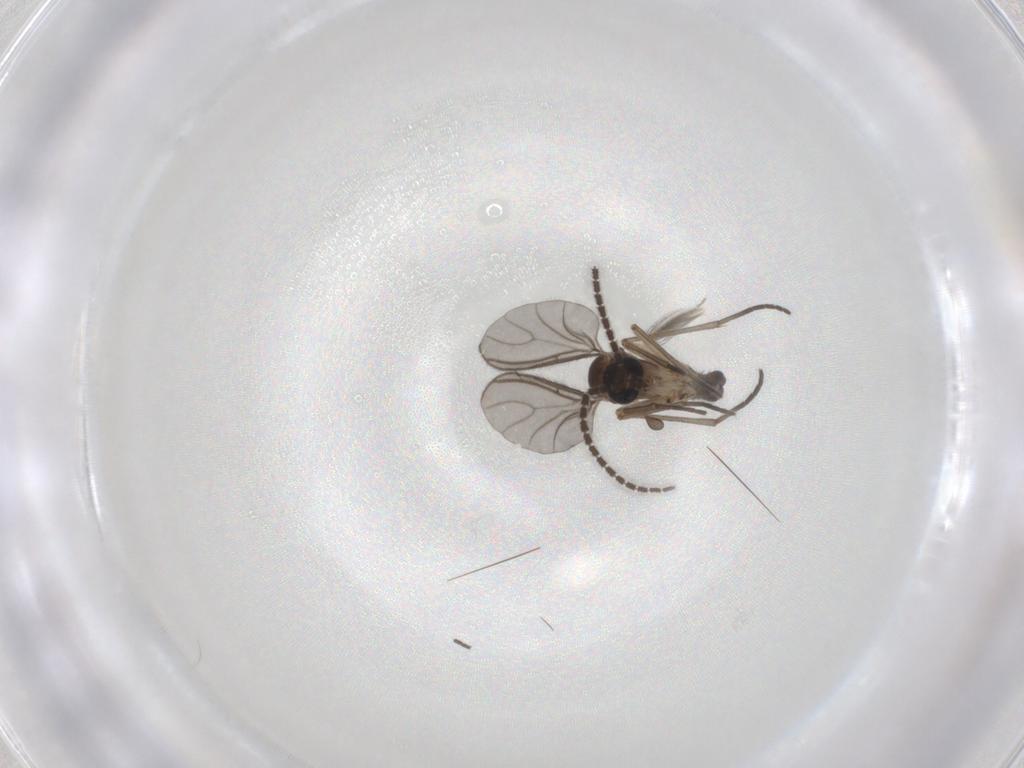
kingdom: Animalia
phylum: Arthropoda
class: Insecta
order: Diptera
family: Sciaridae
